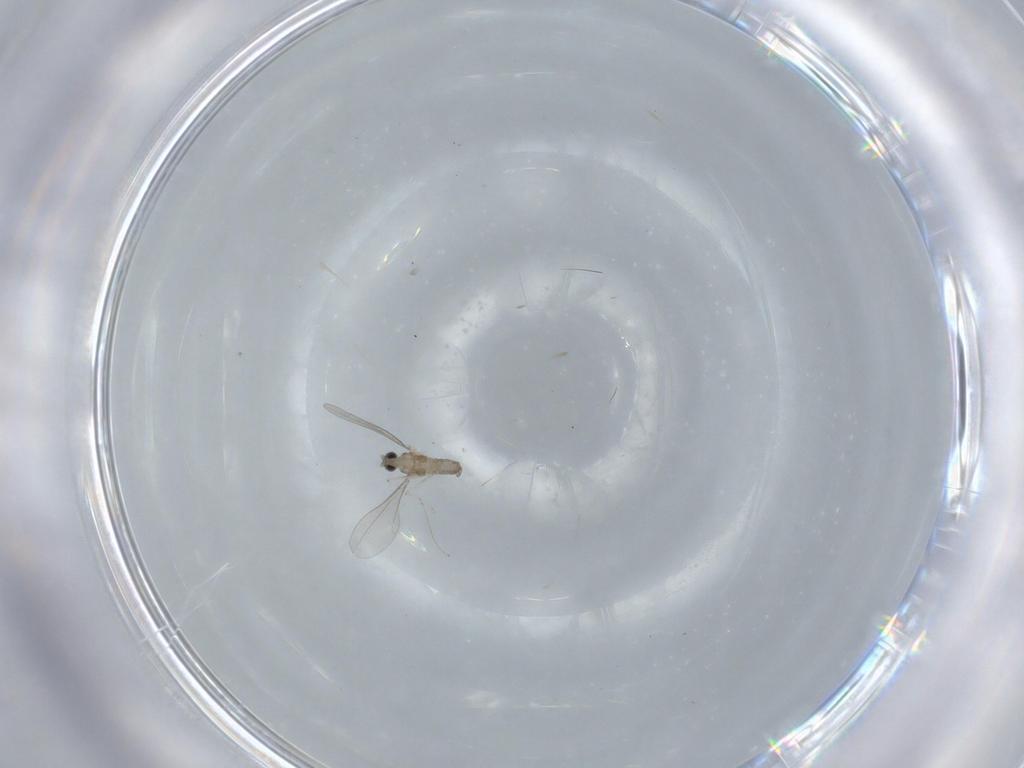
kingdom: Animalia
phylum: Arthropoda
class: Insecta
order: Diptera
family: Cecidomyiidae
